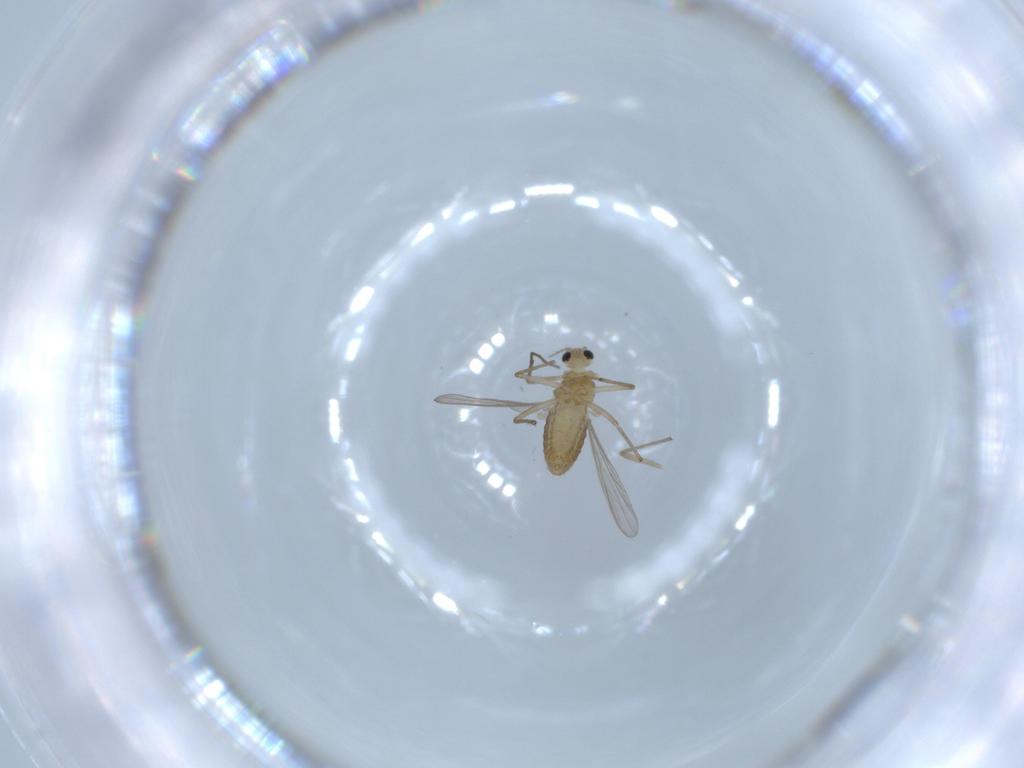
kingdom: Animalia
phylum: Arthropoda
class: Insecta
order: Diptera
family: Chironomidae
